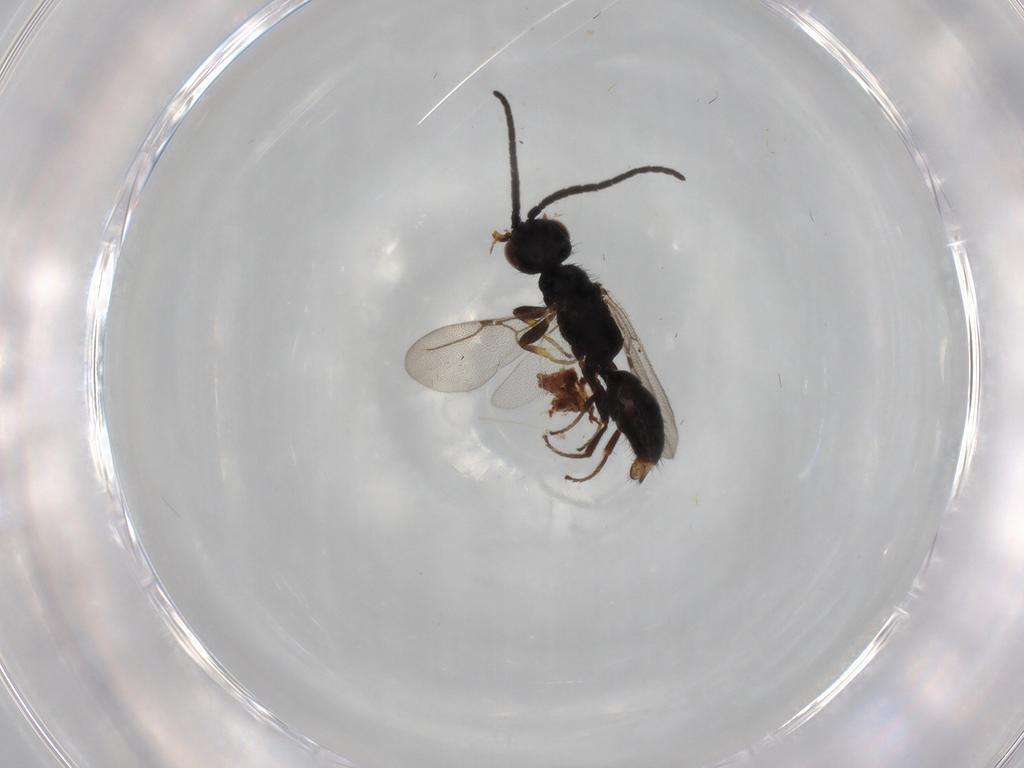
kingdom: Animalia
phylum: Arthropoda
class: Insecta
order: Hymenoptera
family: Bethylidae
